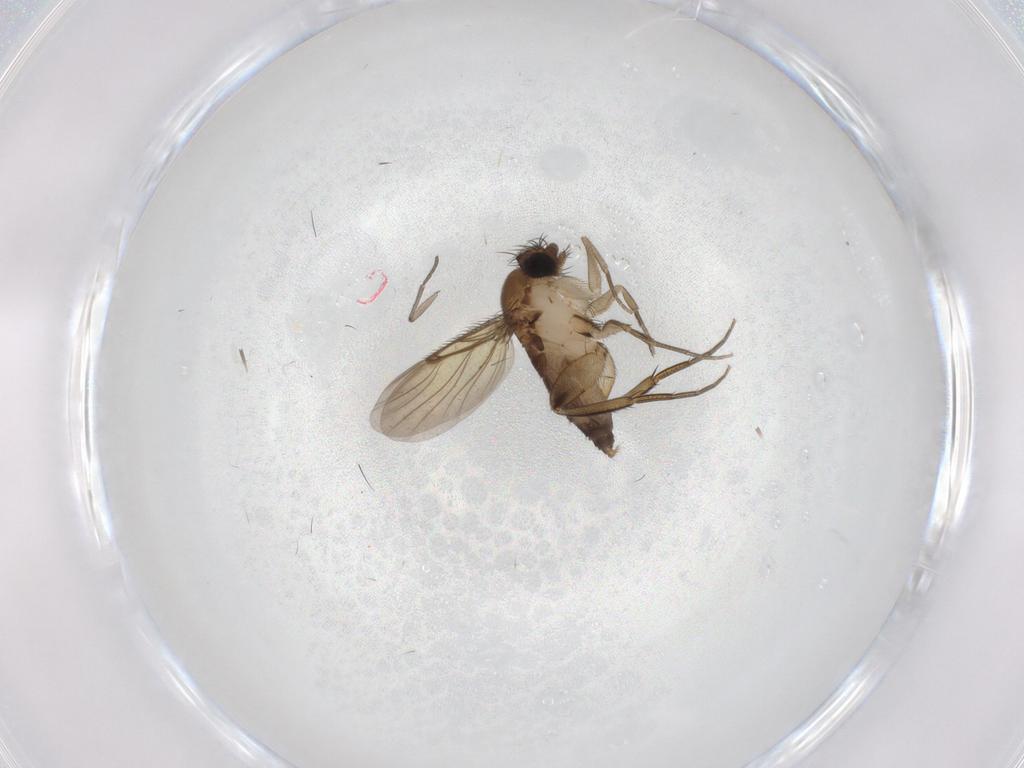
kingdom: Animalia
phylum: Arthropoda
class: Insecta
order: Diptera
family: Phoridae
